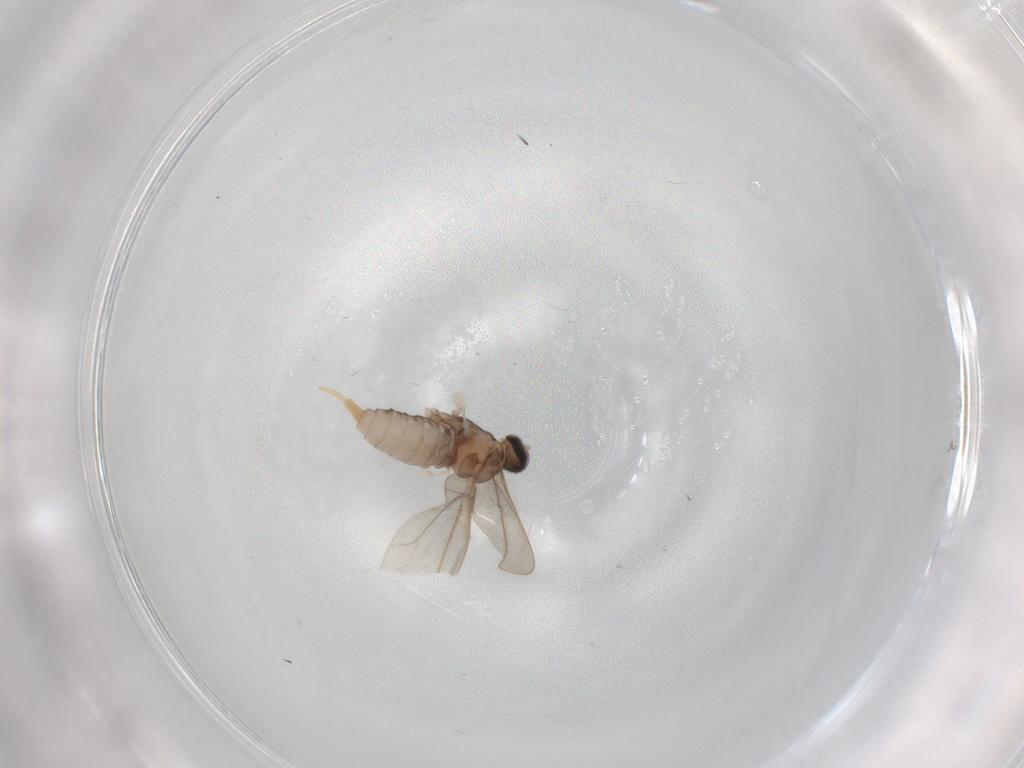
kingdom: Animalia
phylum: Arthropoda
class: Insecta
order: Diptera
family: Cecidomyiidae
